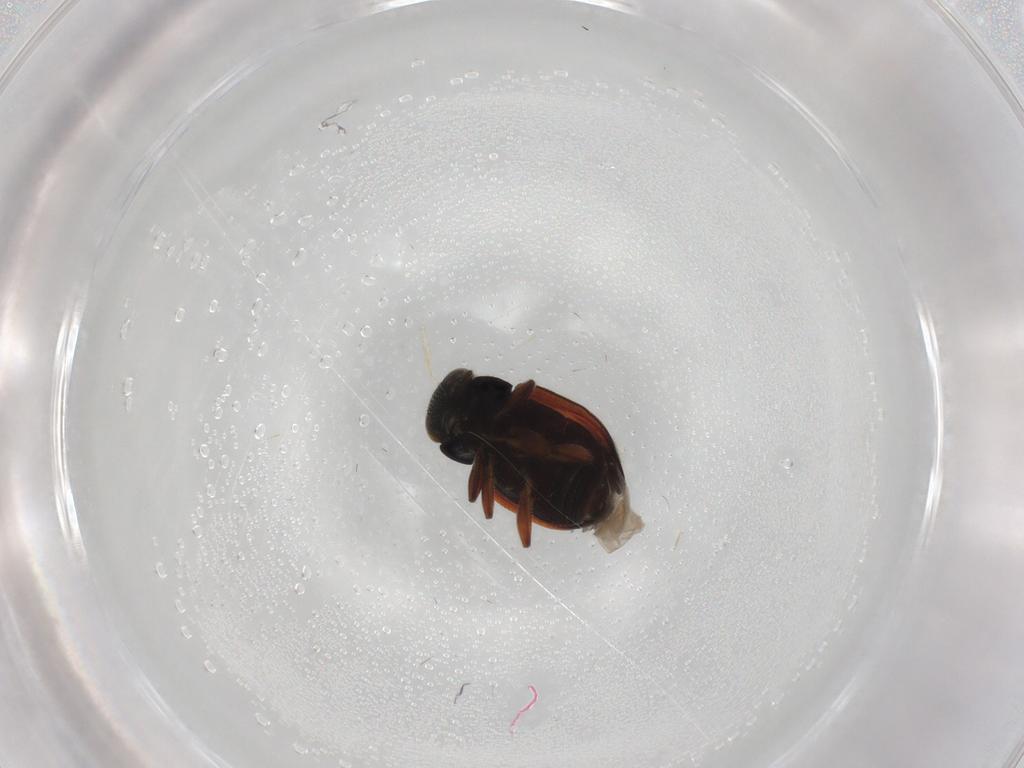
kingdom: Animalia
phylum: Arthropoda
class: Insecta
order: Coleoptera
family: Coccinellidae
